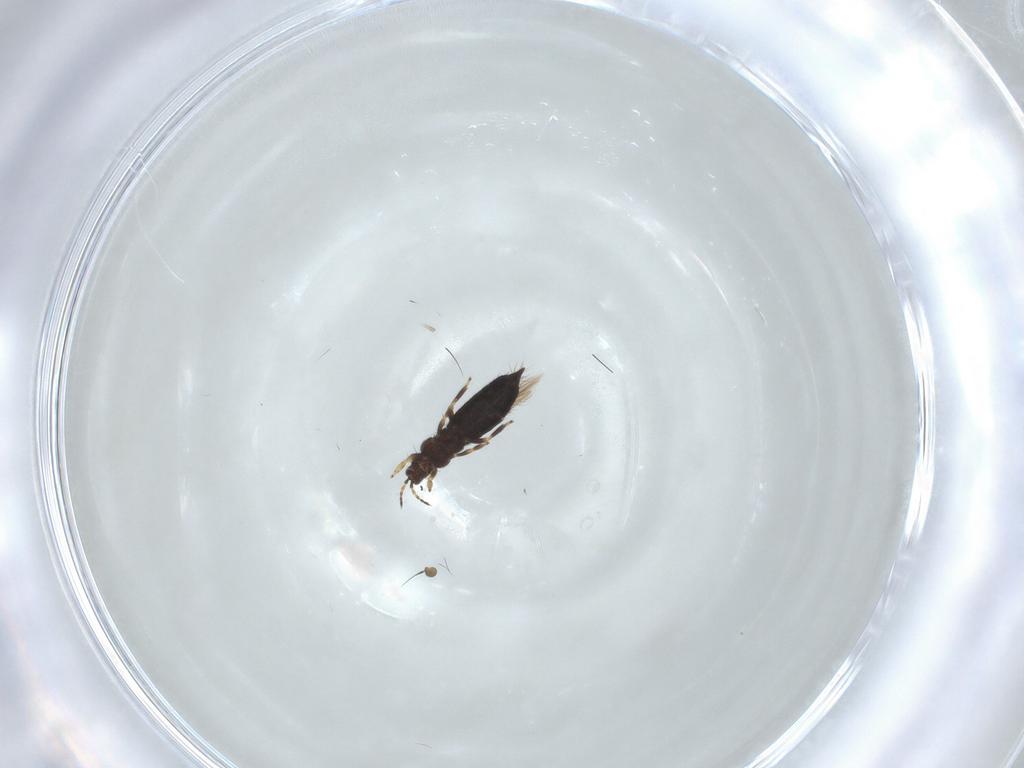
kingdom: Animalia
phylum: Arthropoda
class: Insecta
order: Thysanoptera
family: Thripidae
